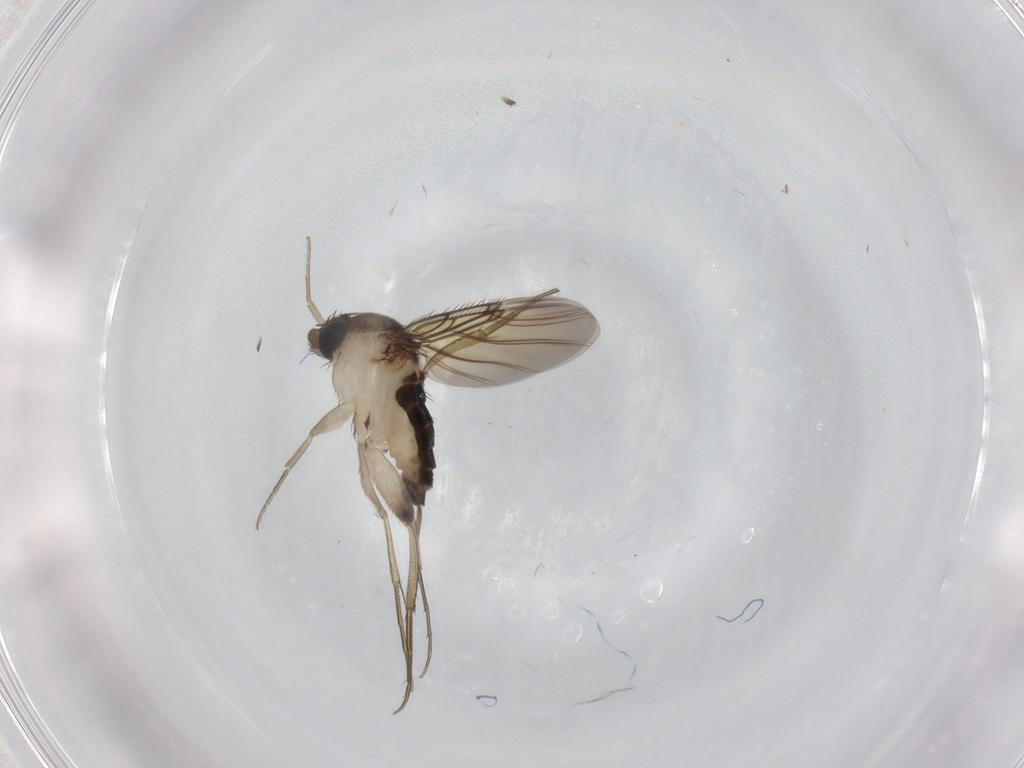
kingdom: Animalia
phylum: Arthropoda
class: Insecta
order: Diptera
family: Phoridae
